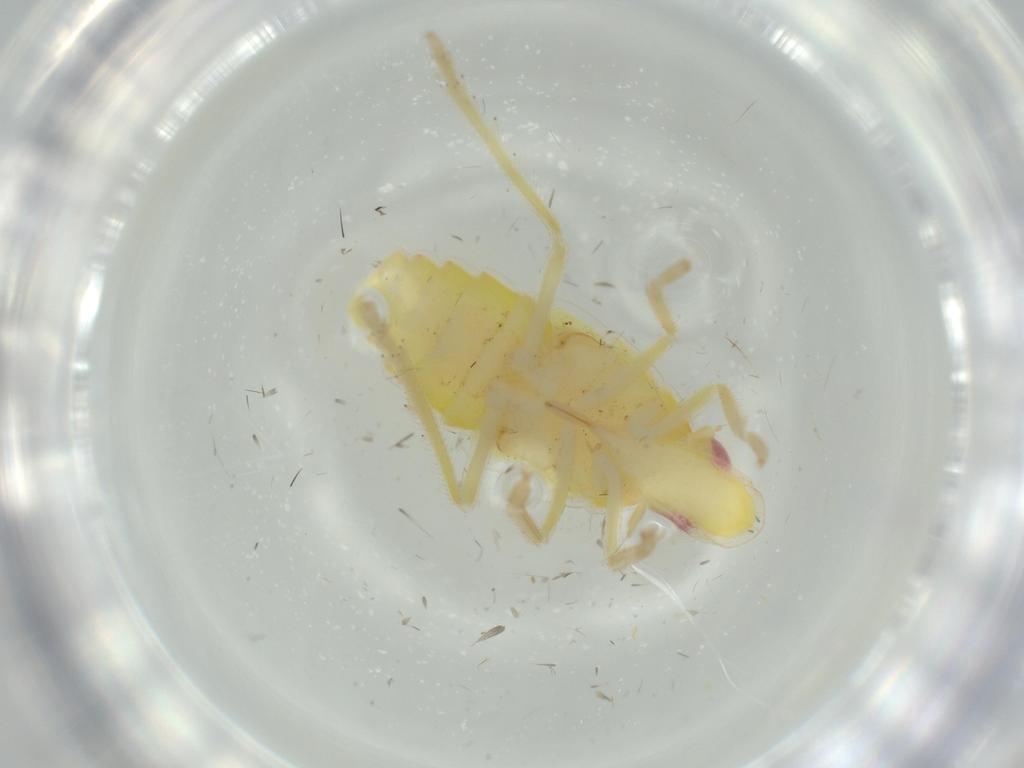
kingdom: Animalia
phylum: Arthropoda
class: Insecta
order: Hemiptera
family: Tropiduchidae
